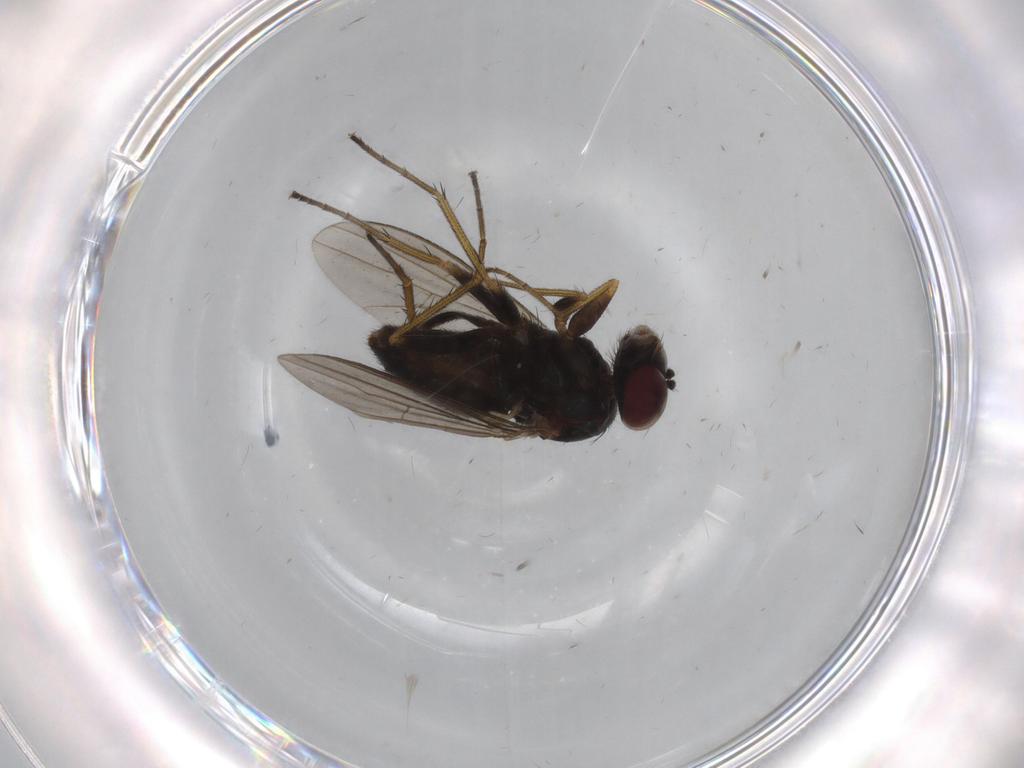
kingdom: Animalia
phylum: Arthropoda
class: Insecta
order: Diptera
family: Dolichopodidae
